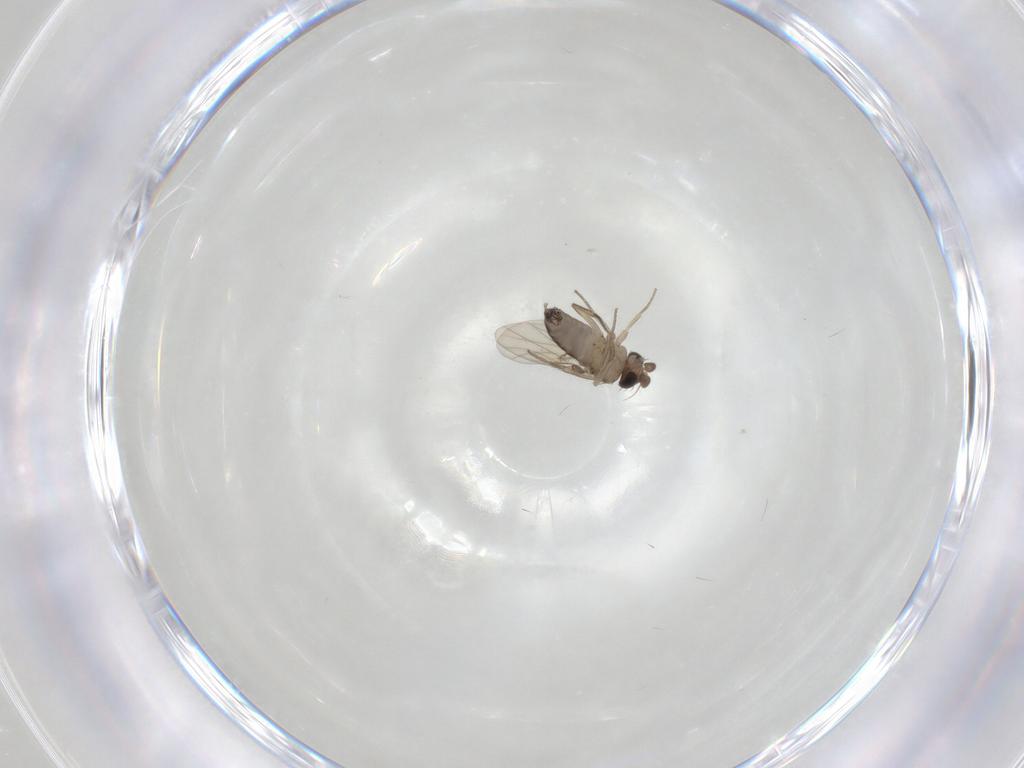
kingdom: Animalia
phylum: Arthropoda
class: Insecta
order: Diptera
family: Phoridae
